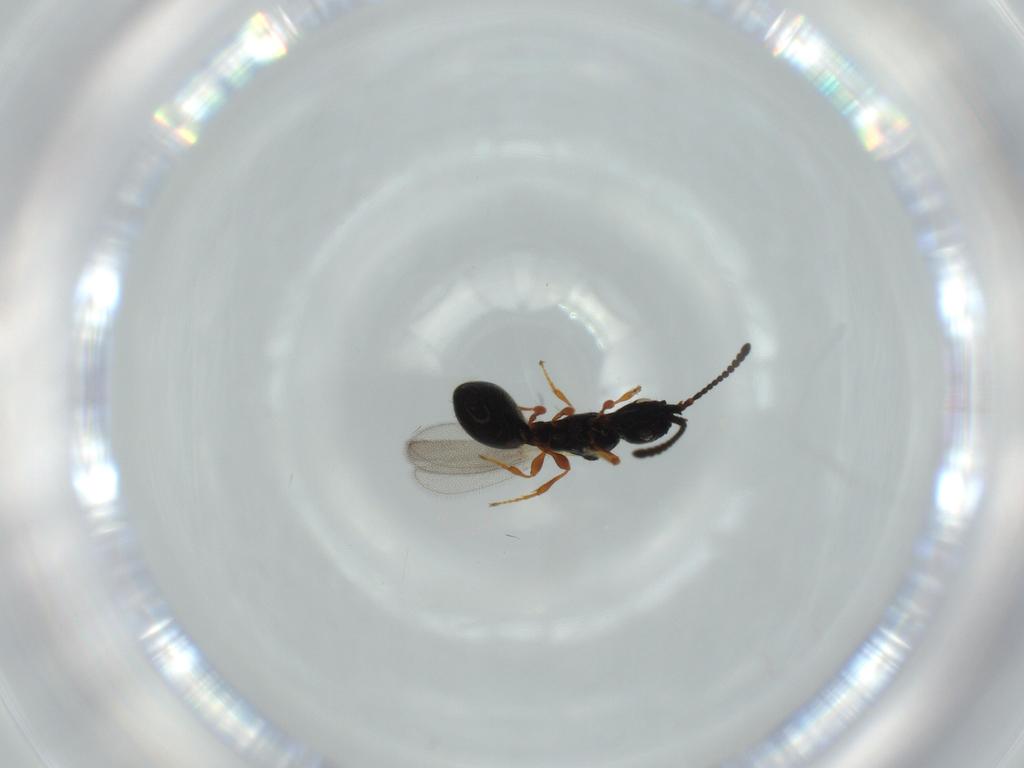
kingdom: Animalia
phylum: Arthropoda
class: Insecta
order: Hymenoptera
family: Diapriidae
